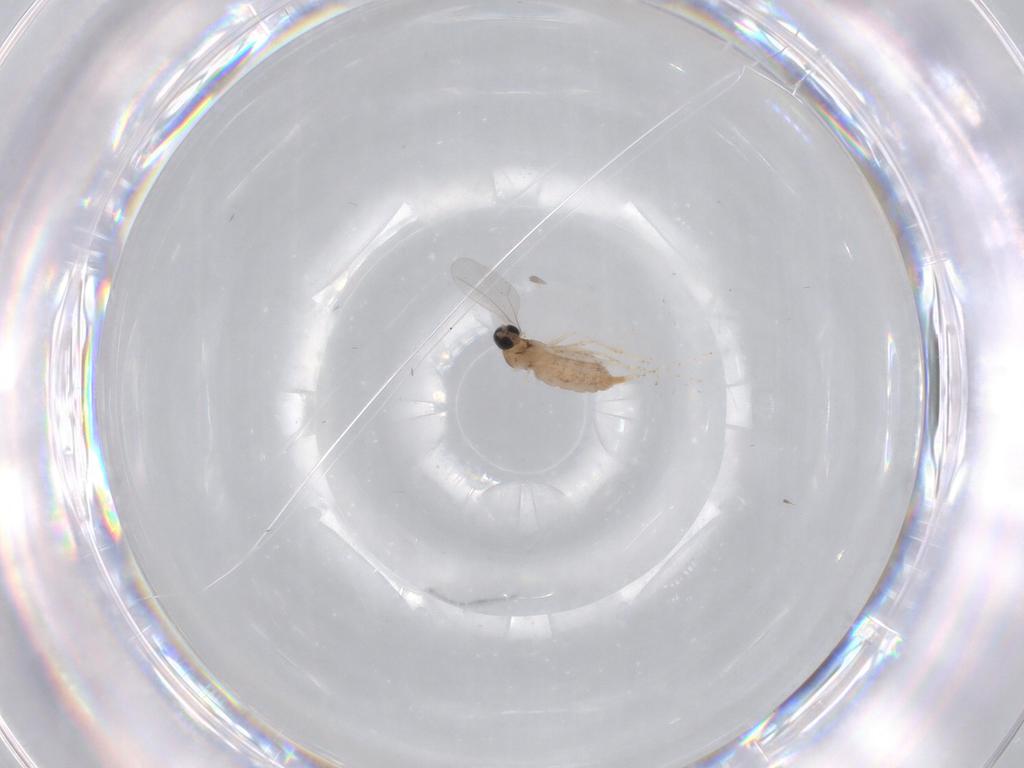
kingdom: Animalia
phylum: Arthropoda
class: Insecta
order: Diptera
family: Cecidomyiidae
